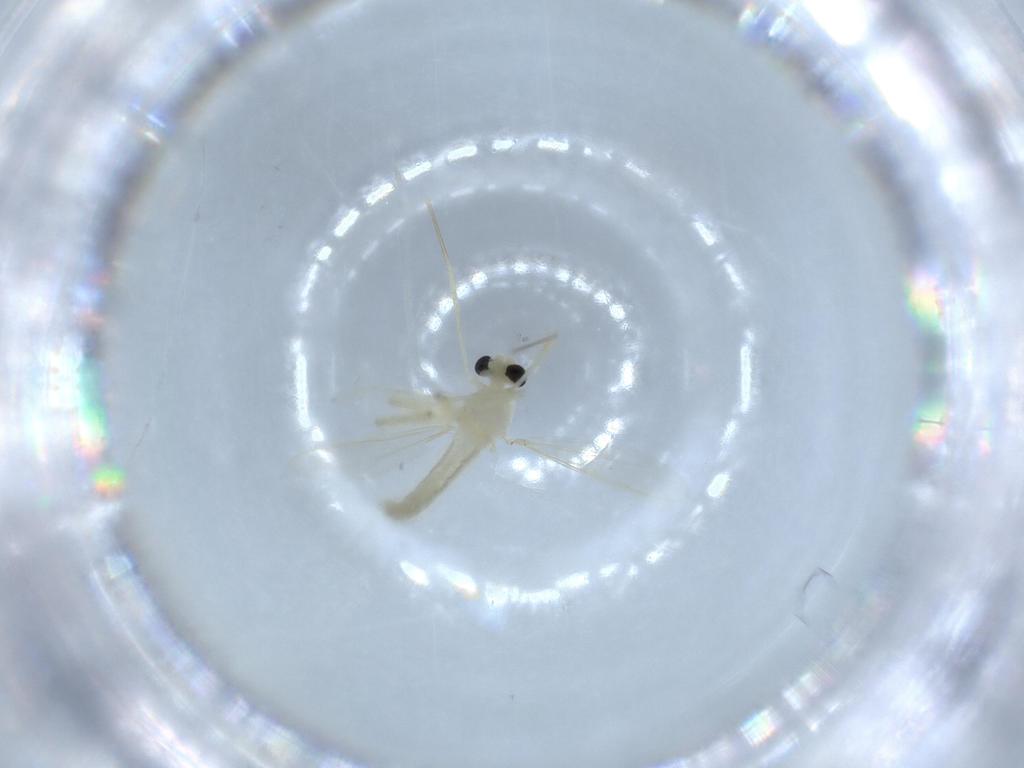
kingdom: Animalia
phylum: Arthropoda
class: Insecta
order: Diptera
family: Chironomidae
